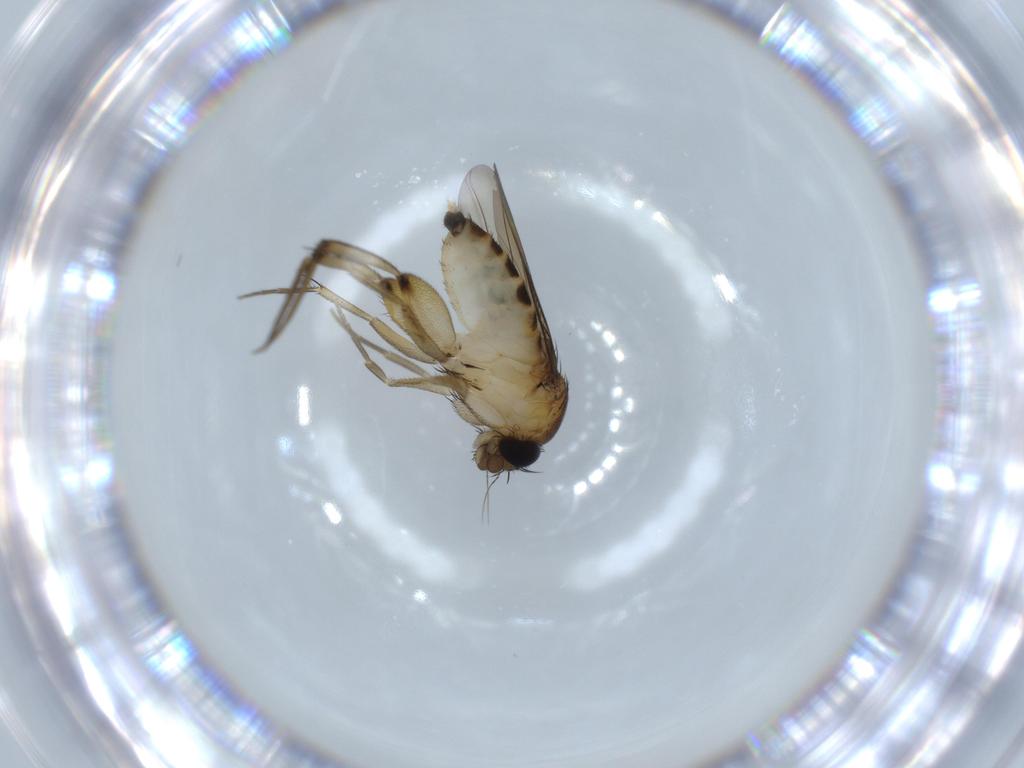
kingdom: Animalia
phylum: Arthropoda
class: Insecta
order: Diptera
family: Phoridae
